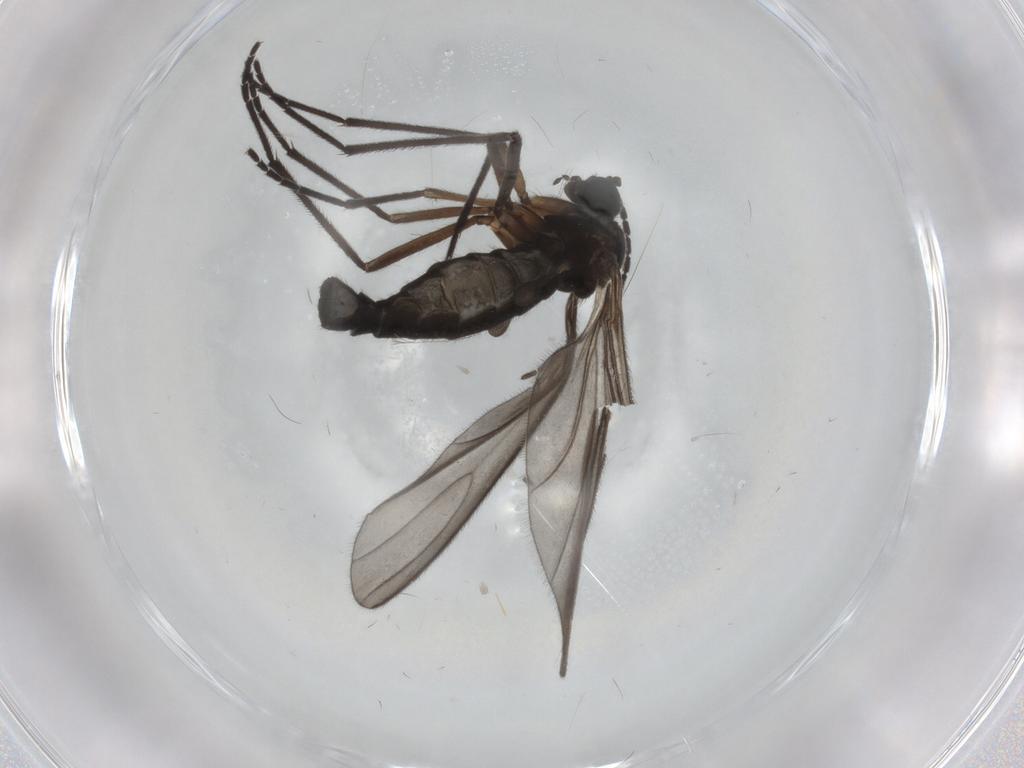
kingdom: Animalia
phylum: Arthropoda
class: Insecta
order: Diptera
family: Sciaridae
